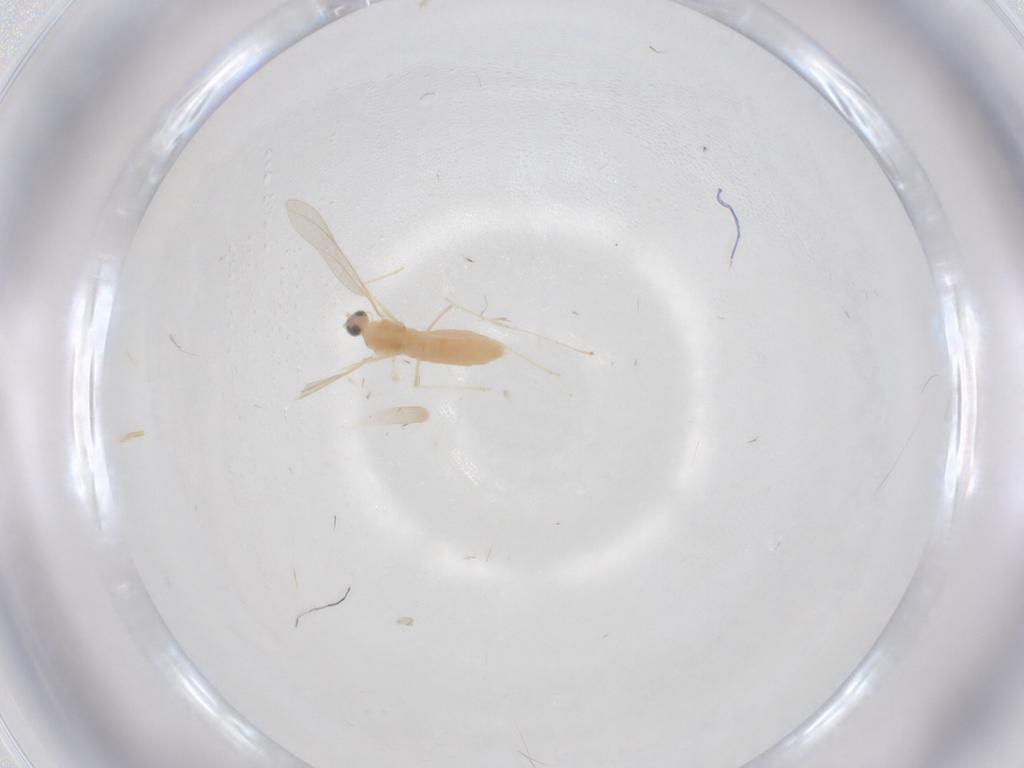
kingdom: Animalia
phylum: Arthropoda
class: Insecta
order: Diptera
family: Cecidomyiidae
